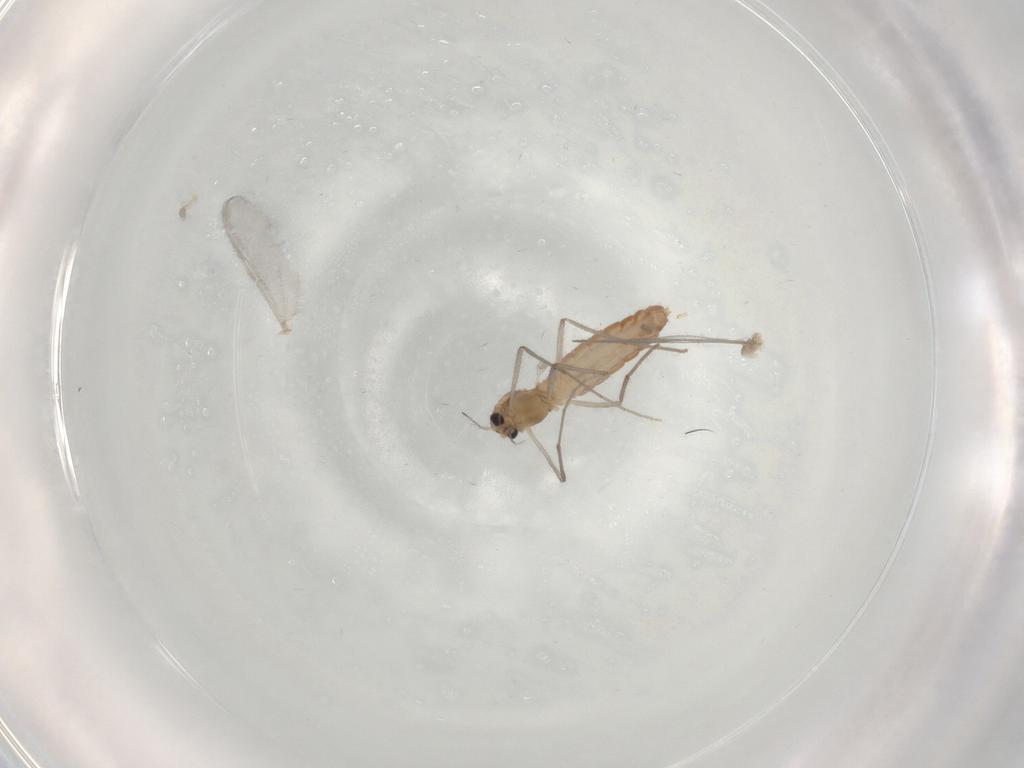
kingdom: Animalia
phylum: Arthropoda
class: Insecta
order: Diptera
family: Chironomidae
